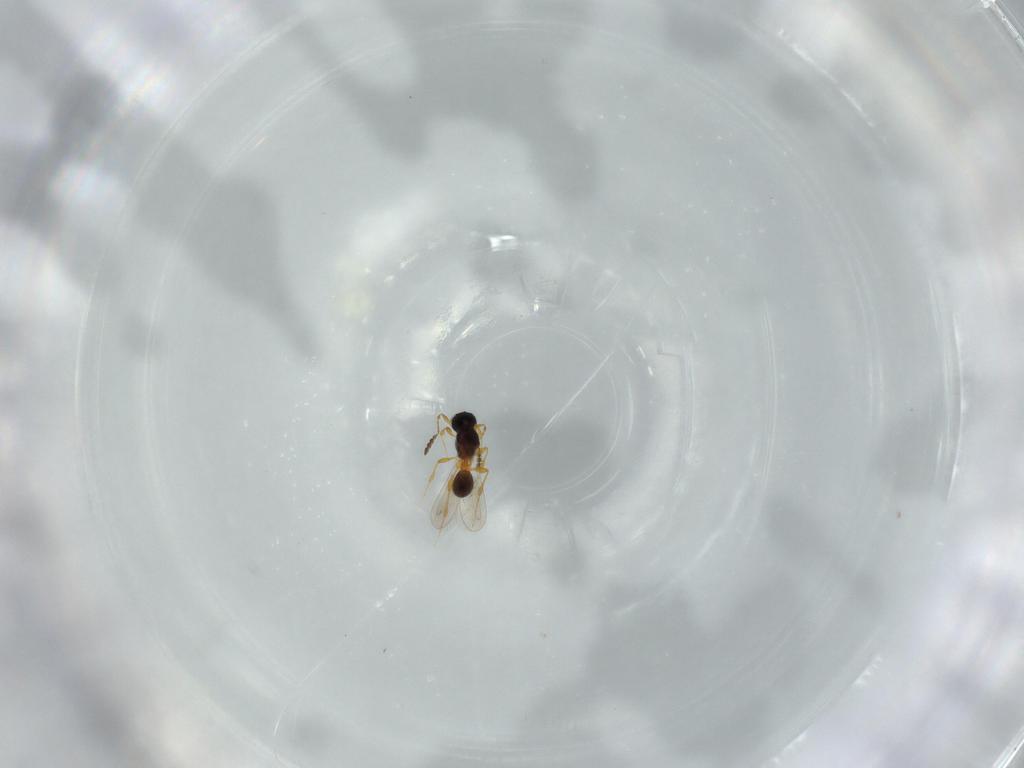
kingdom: Animalia
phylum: Arthropoda
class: Insecta
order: Hymenoptera
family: Platygastridae
